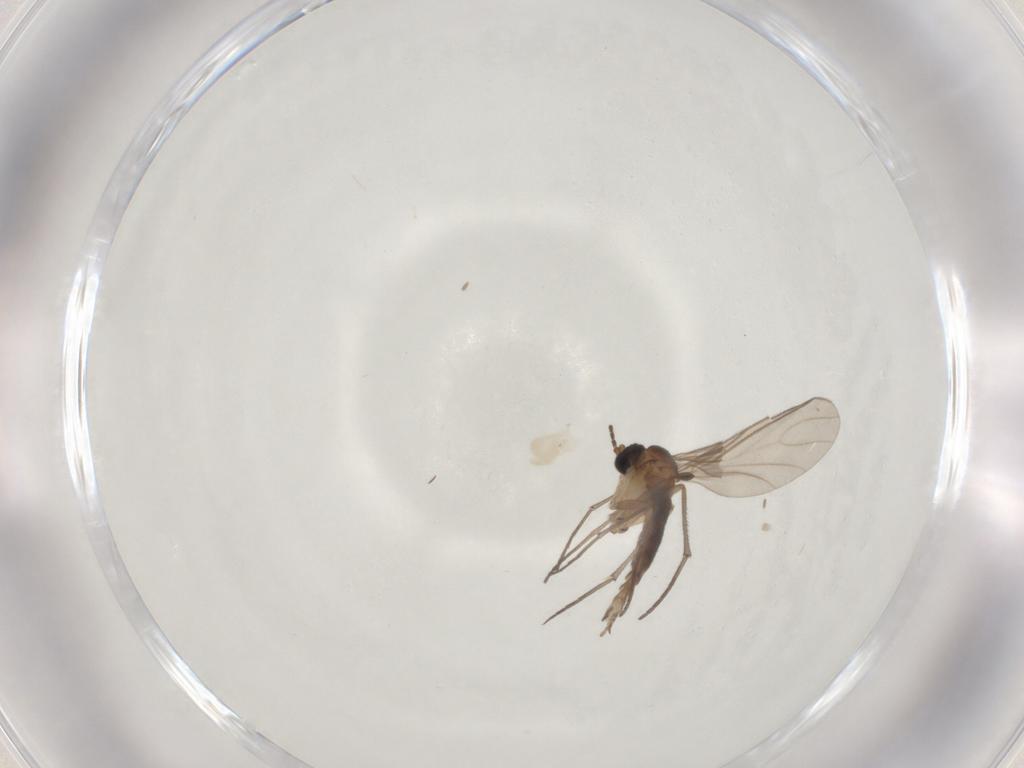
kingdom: Animalia
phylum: Arthropoda
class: Insecta
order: Diptera
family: Sciaridae
